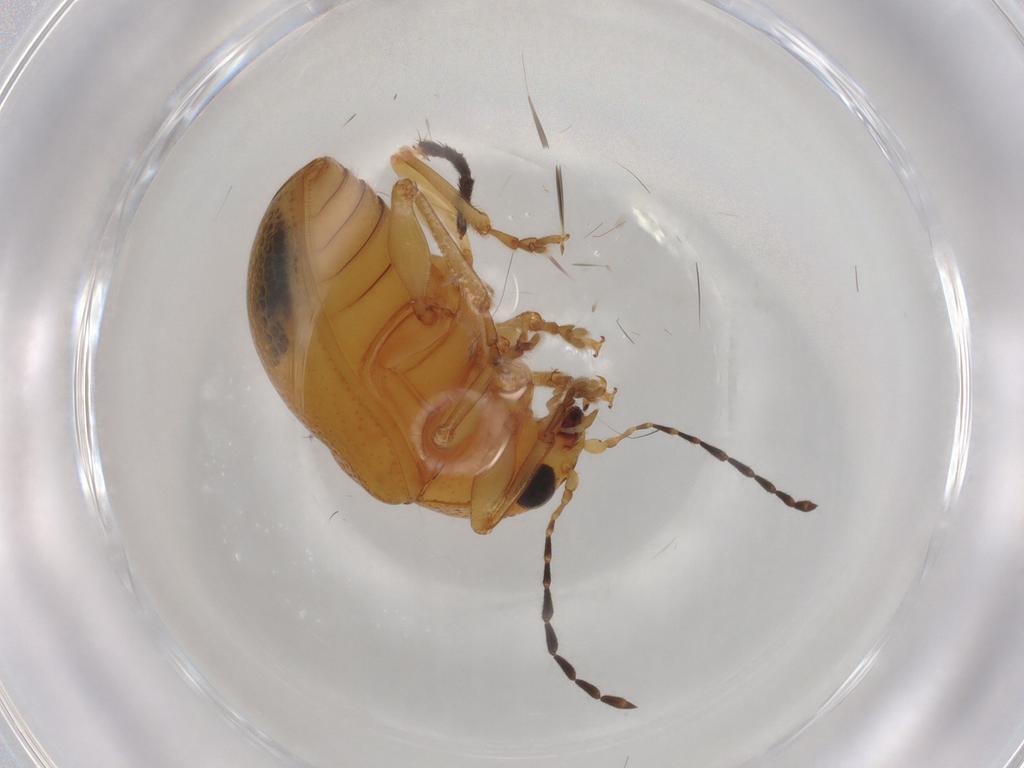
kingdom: Animalia
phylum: Arthropoda
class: Insecta
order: Coleoptera
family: Chrysomelidae
